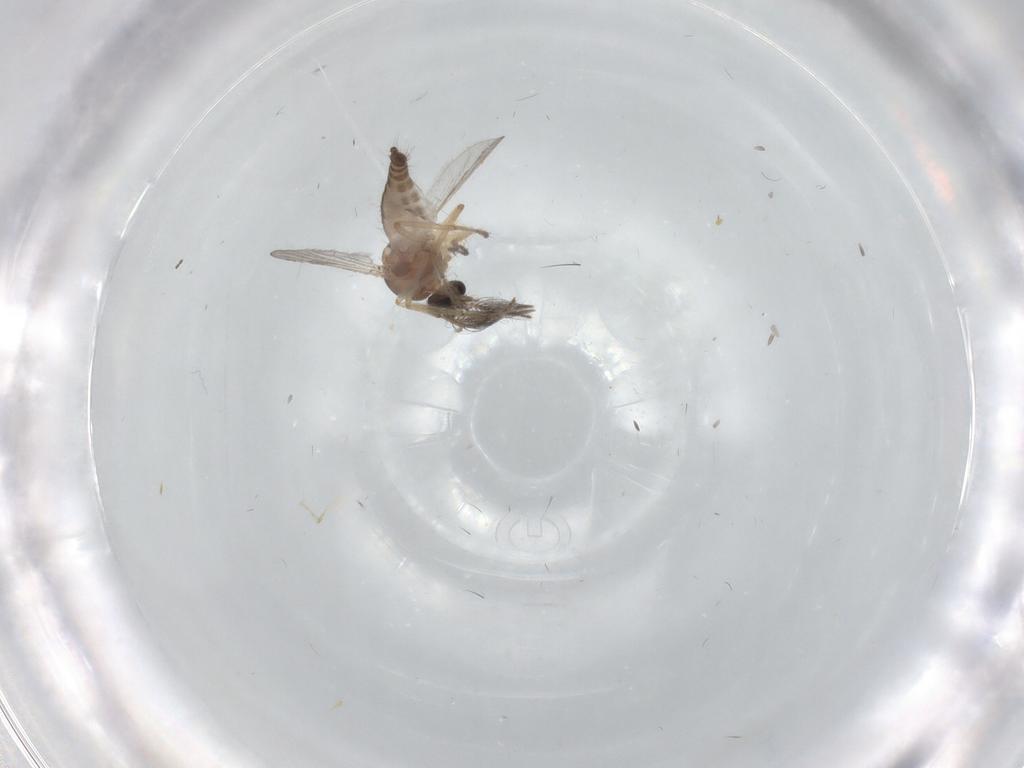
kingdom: Animalia
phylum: Arthropoda
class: Insecta
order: Diptera
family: Ceratopogonidae
